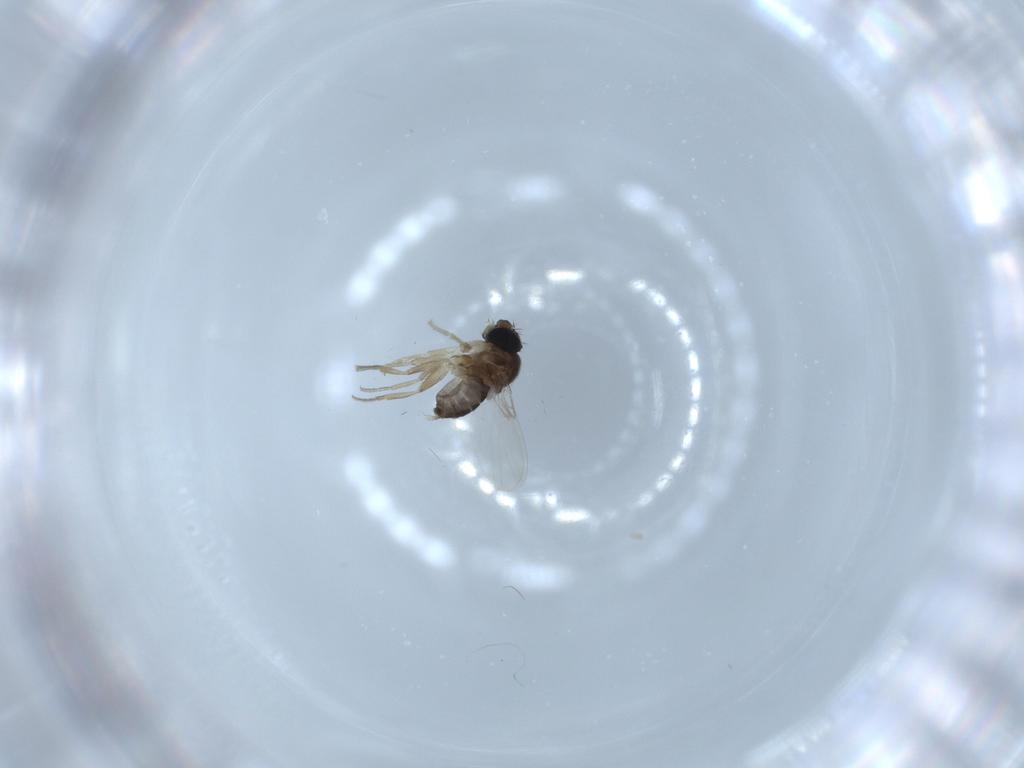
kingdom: Animalia
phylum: Arthropoda
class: Insecta
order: Diptera
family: Phoridae
